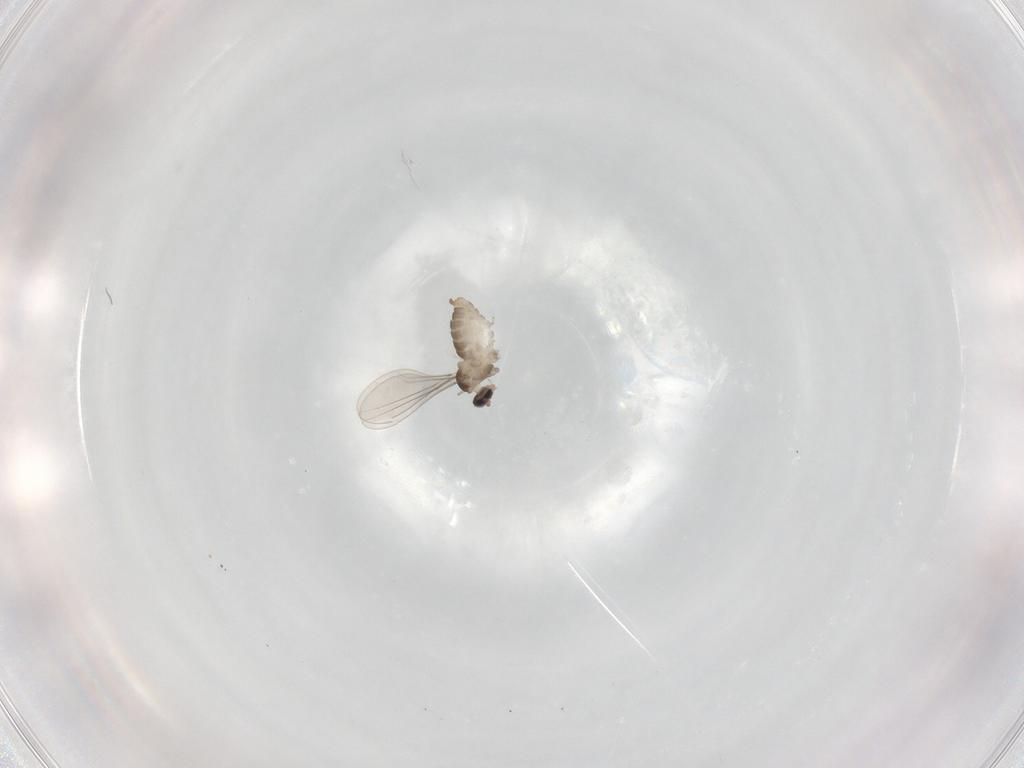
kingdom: Animalia
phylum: Arthropoda
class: Insecta
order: Diptera
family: Cecidomyiidae
